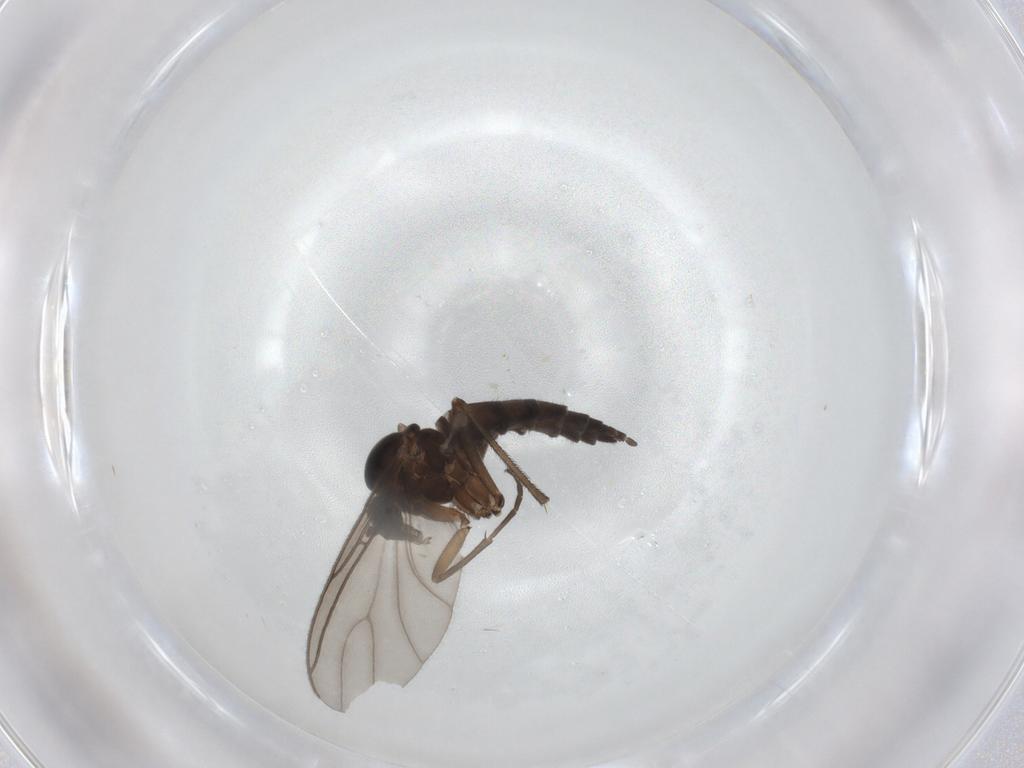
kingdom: Animalia
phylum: Arthropoda
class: Insecta
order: Diptera
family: Sciaridae
